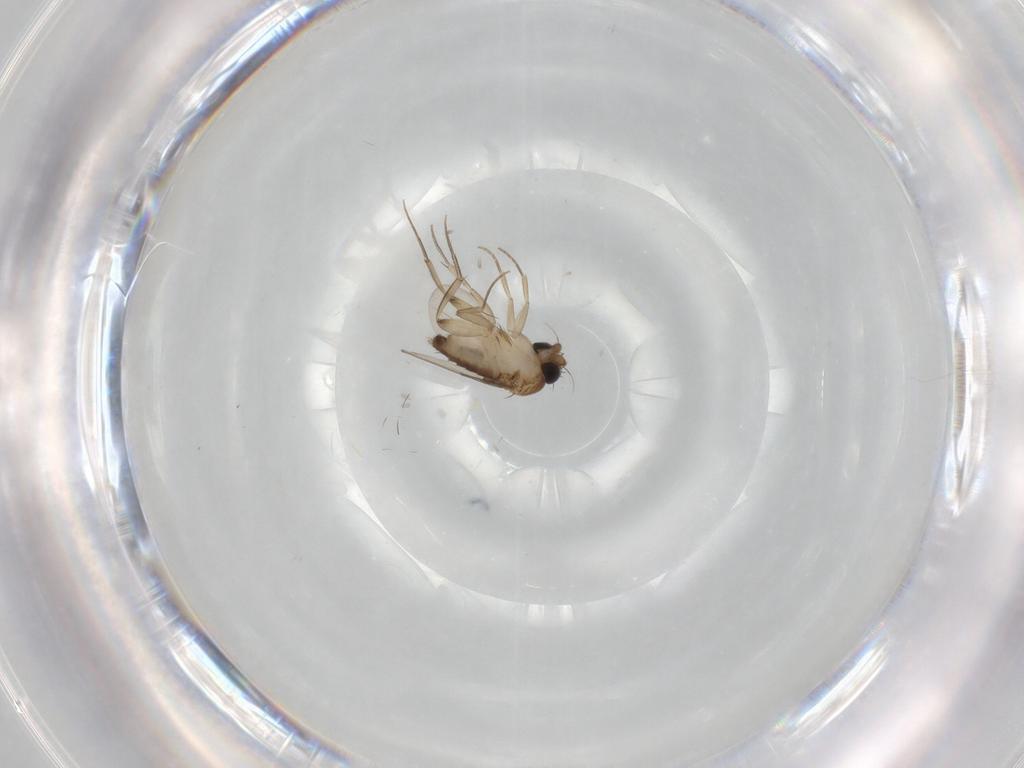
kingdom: Animalia
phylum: Arthropoda
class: Insecta
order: Diptera
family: Phoridae
